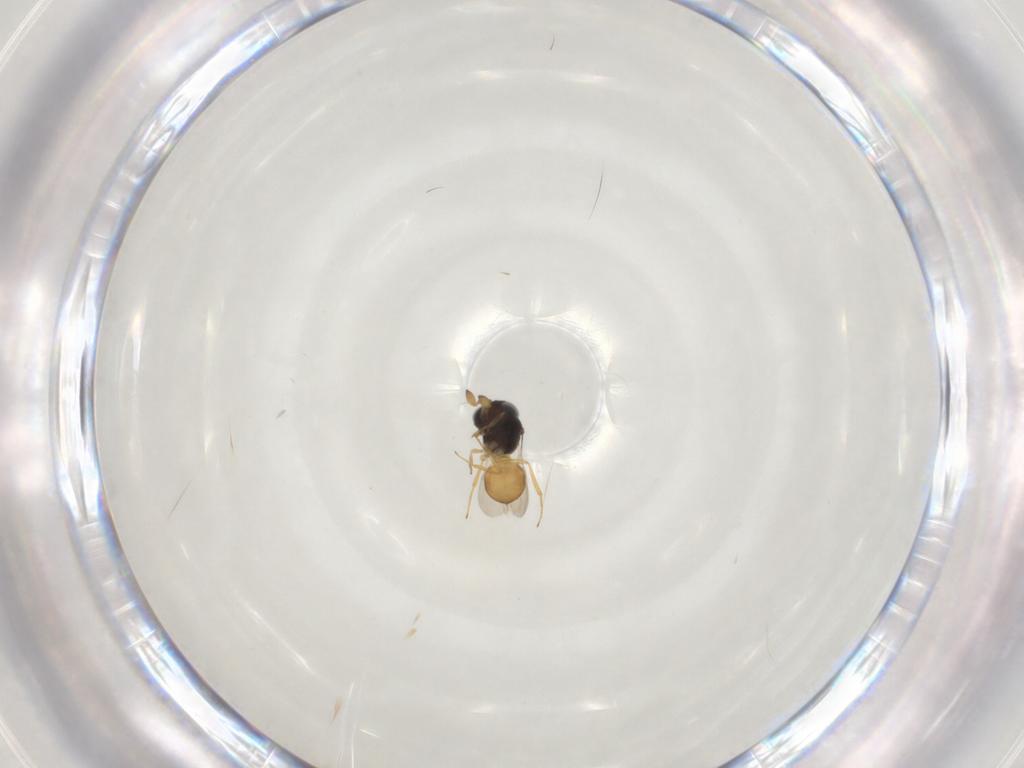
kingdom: Animalia
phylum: Arthropoda
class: Insecta
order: Hymenoptera
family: Scelionidae
